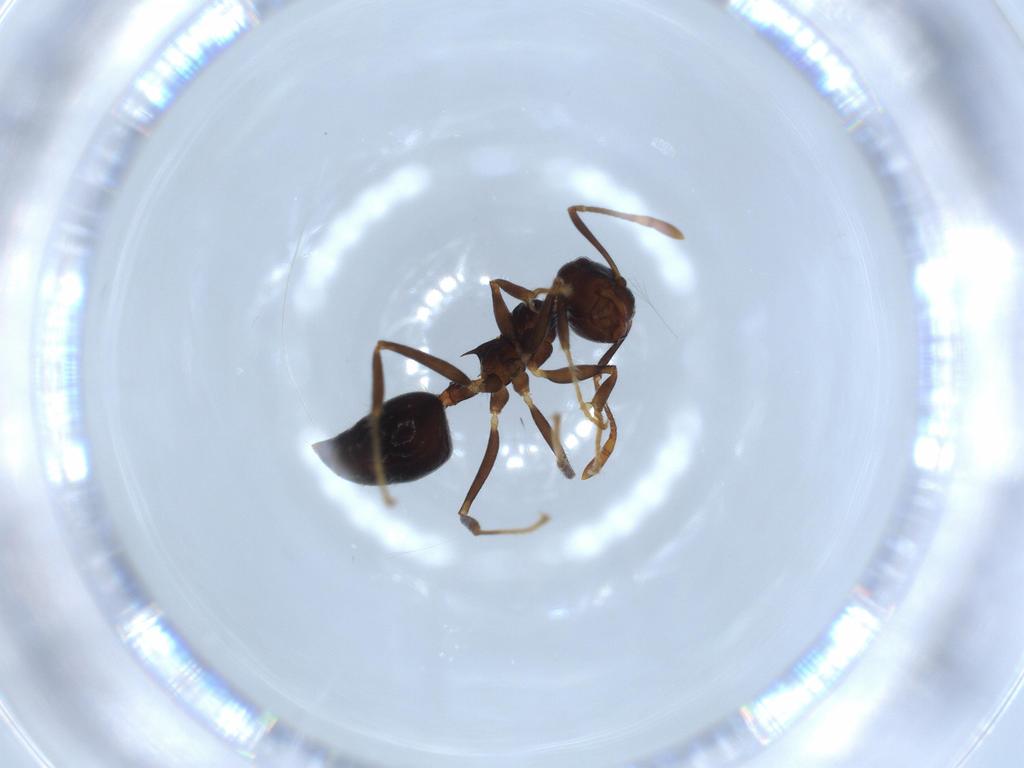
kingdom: Animalia
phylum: Arthropoda
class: Insecta
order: Hymenoptera
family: Formicidae
